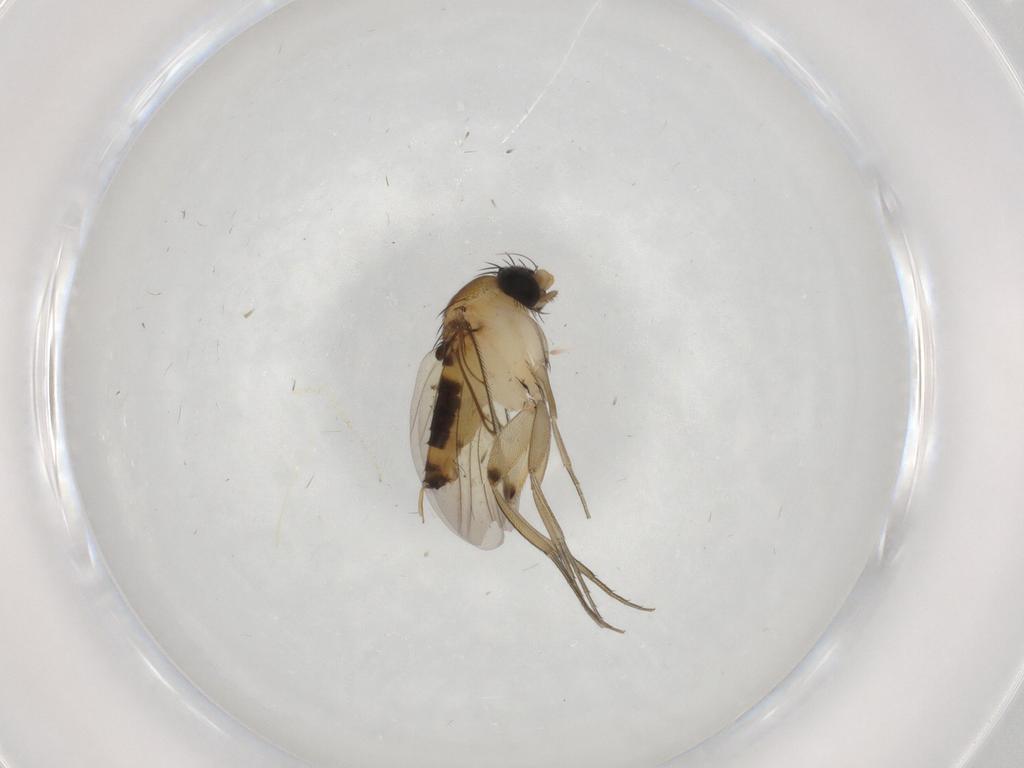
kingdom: Animalia
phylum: Arthropoda
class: Insecta
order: Diptera
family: Phoridae
